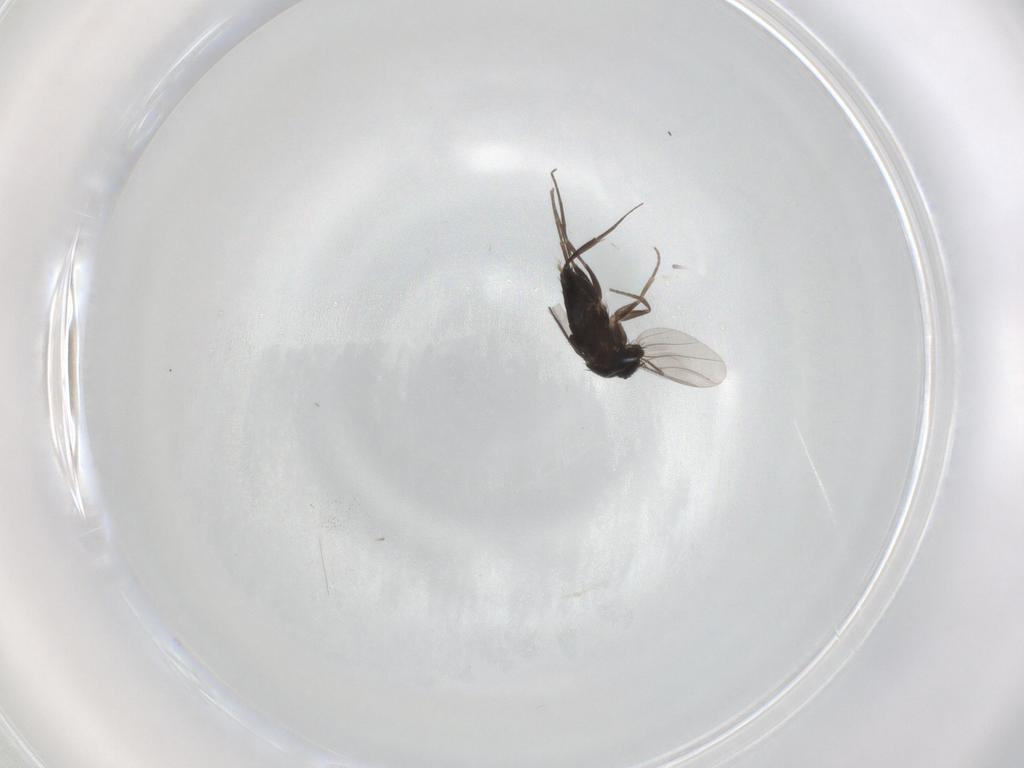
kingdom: Animalia
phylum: Arthropoda
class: Insecta
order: Diptera
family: Phoridae
